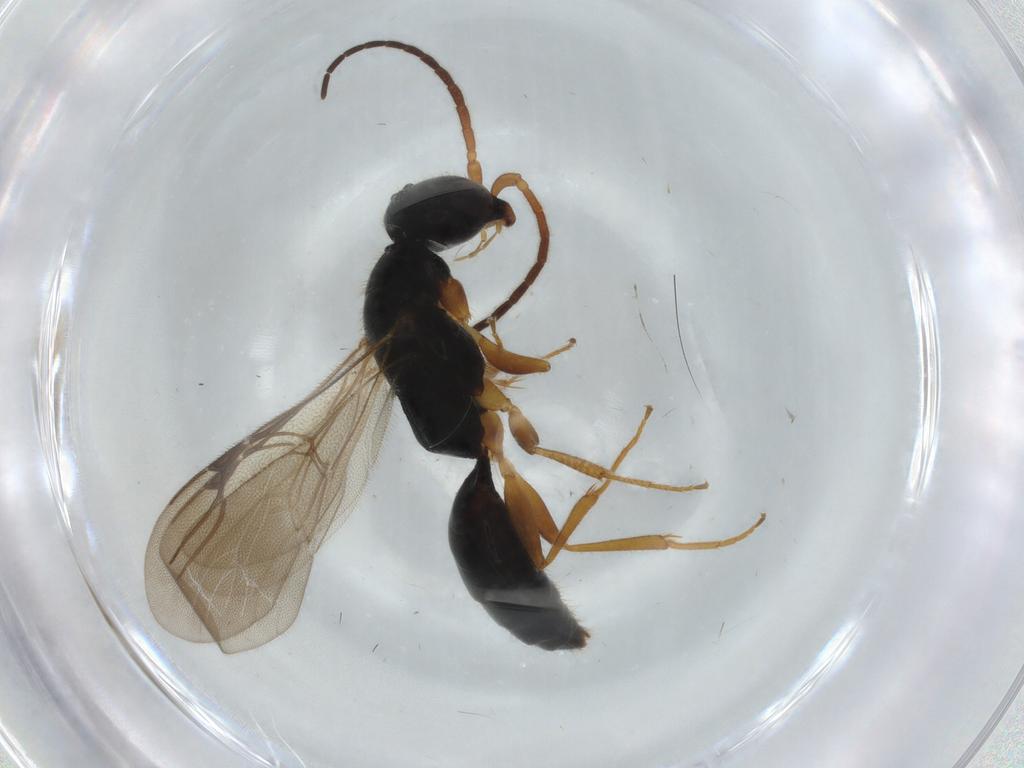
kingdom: Animalia
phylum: Arthropoda
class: Insecta
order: Hymenoptera
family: Pteromalidae
